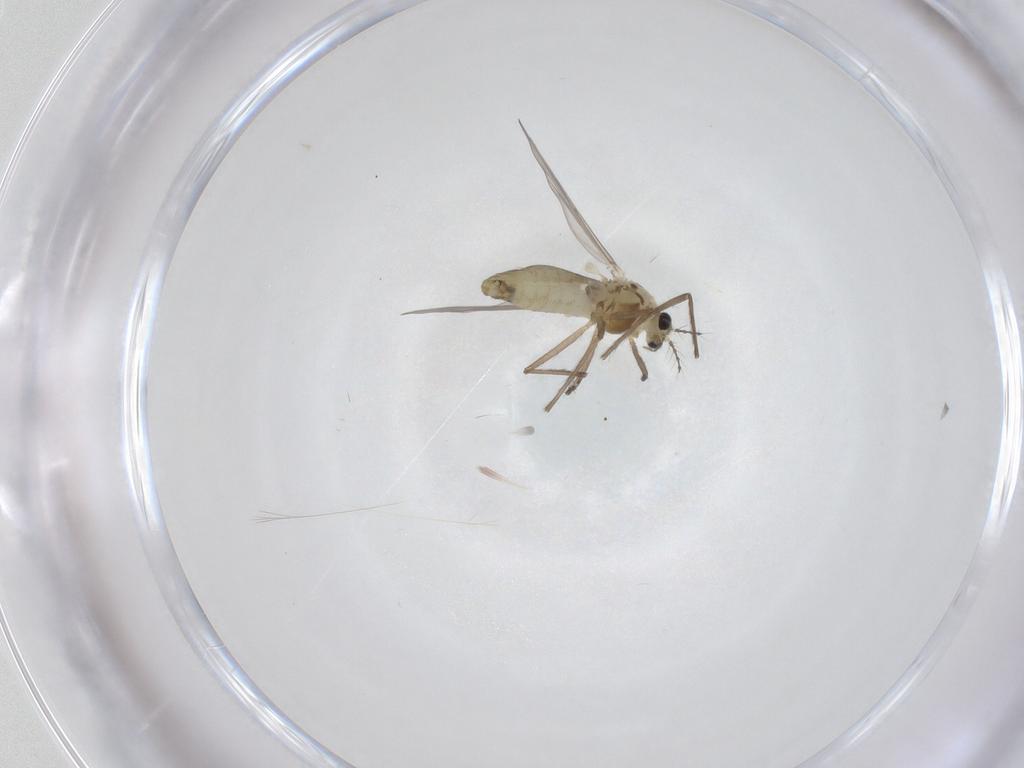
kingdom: Animalia
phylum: Arthropoda
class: Insecta
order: Diptera
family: Chironomidae
